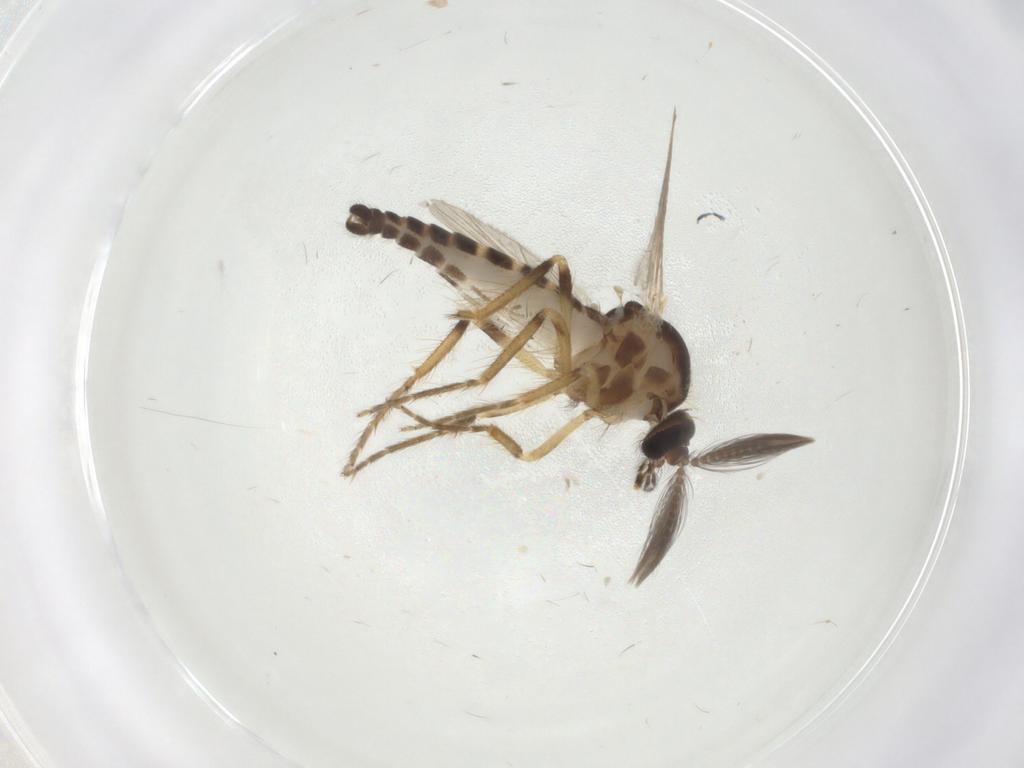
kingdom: Animalia
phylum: Arthropoda
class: Insecta
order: Diptera
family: Ceratopogonidae
